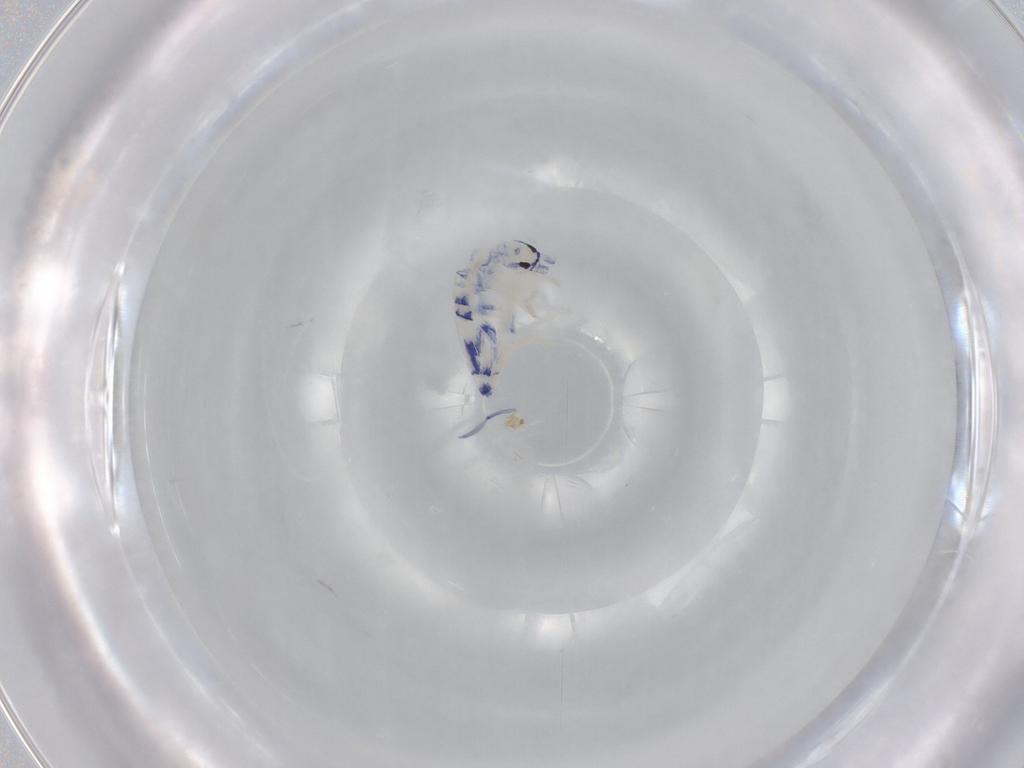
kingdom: Animalia
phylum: Arthropoda
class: Collembola
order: Entomobryomorpha
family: Entomobryidae
